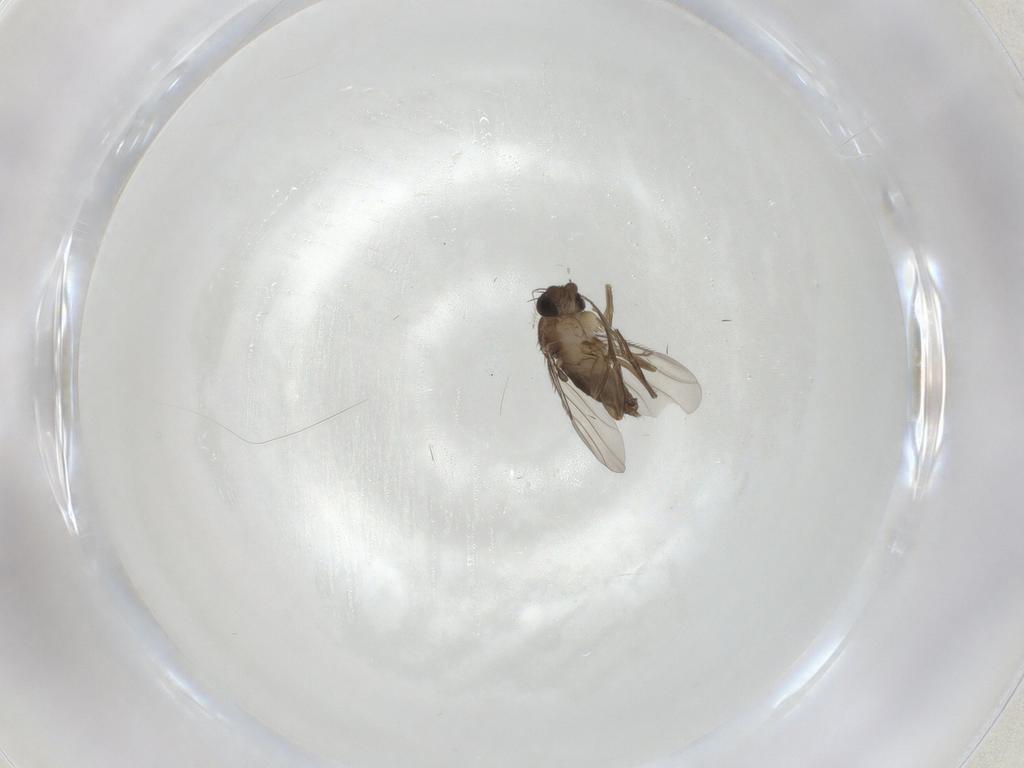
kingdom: Animalia
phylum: Arthropoda
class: Insecta
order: Diptera
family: Phoridae
